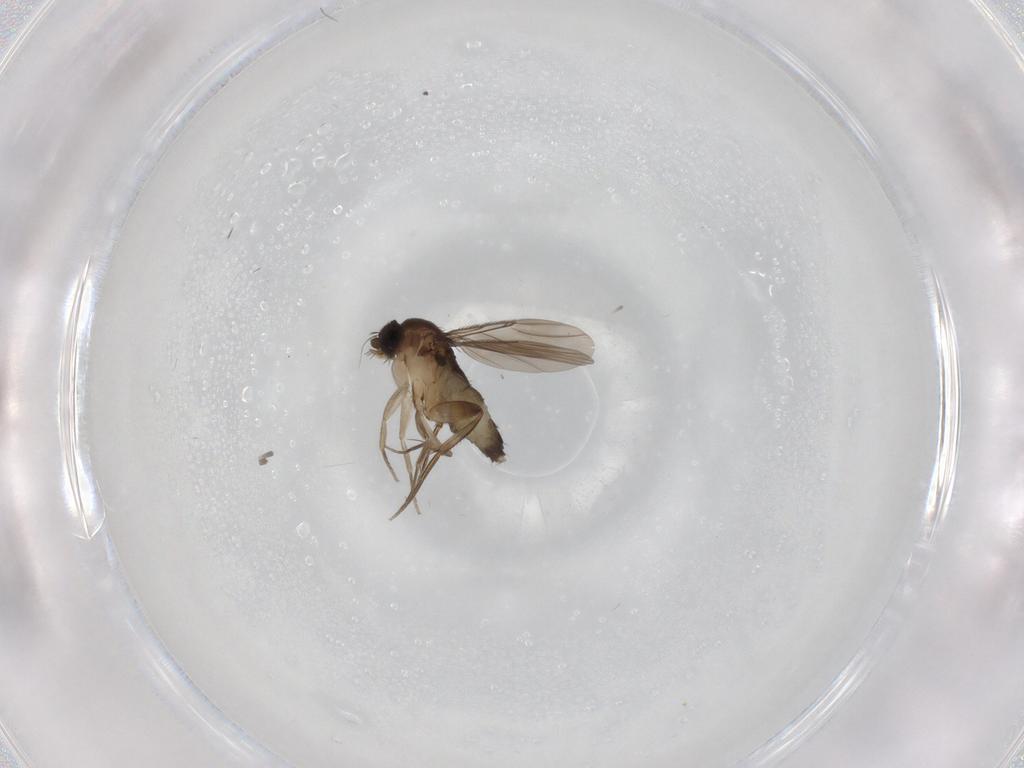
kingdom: Animalia
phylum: Arthropoda
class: Insecta
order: Diptera
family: Phoridae
